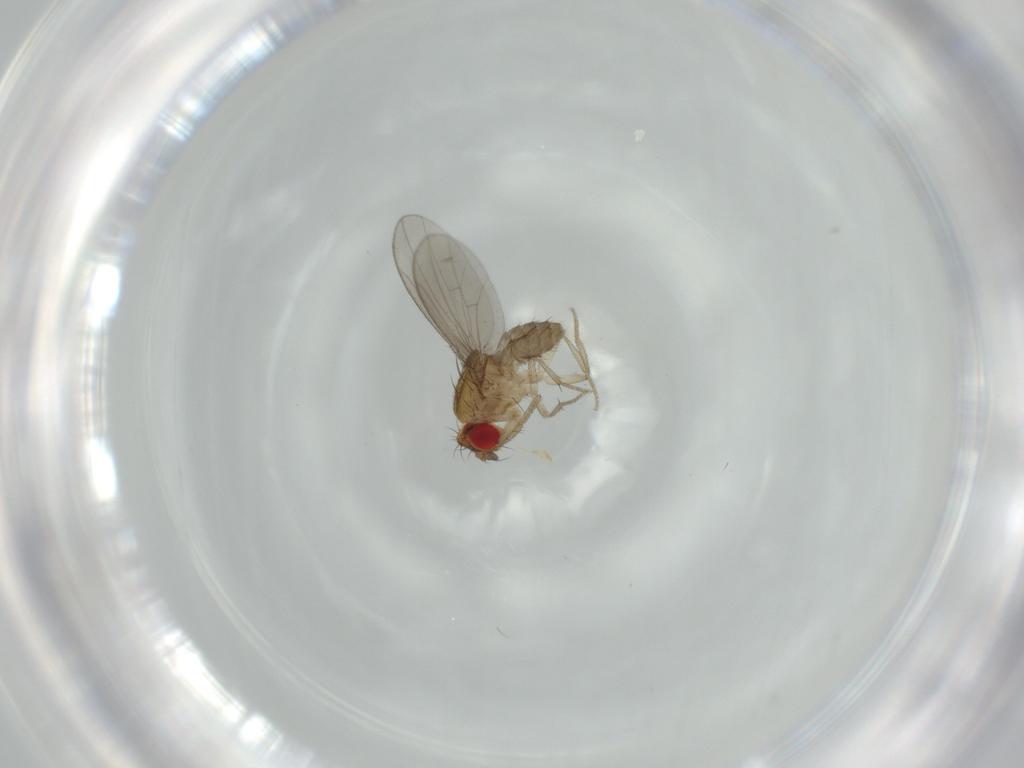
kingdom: Animalia
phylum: Arthropoda
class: Insecta
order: Diptera
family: Drosophilidae
